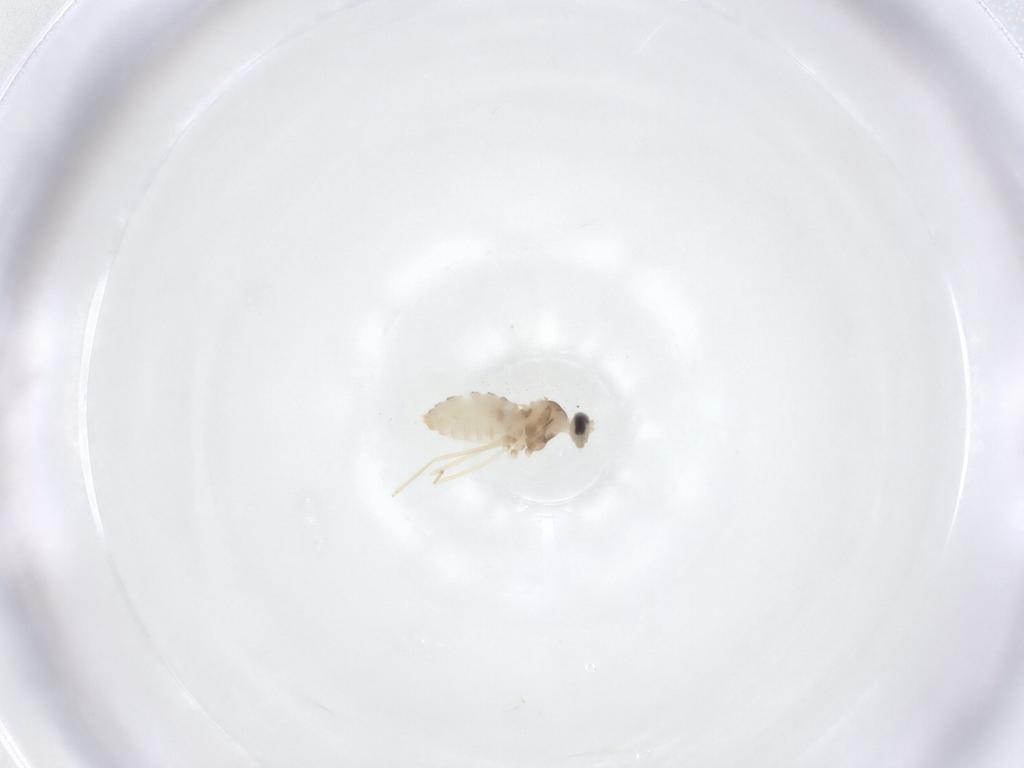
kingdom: Animalia
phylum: Arthropoda
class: Insecta
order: Diptera
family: Cecidomyiidae
